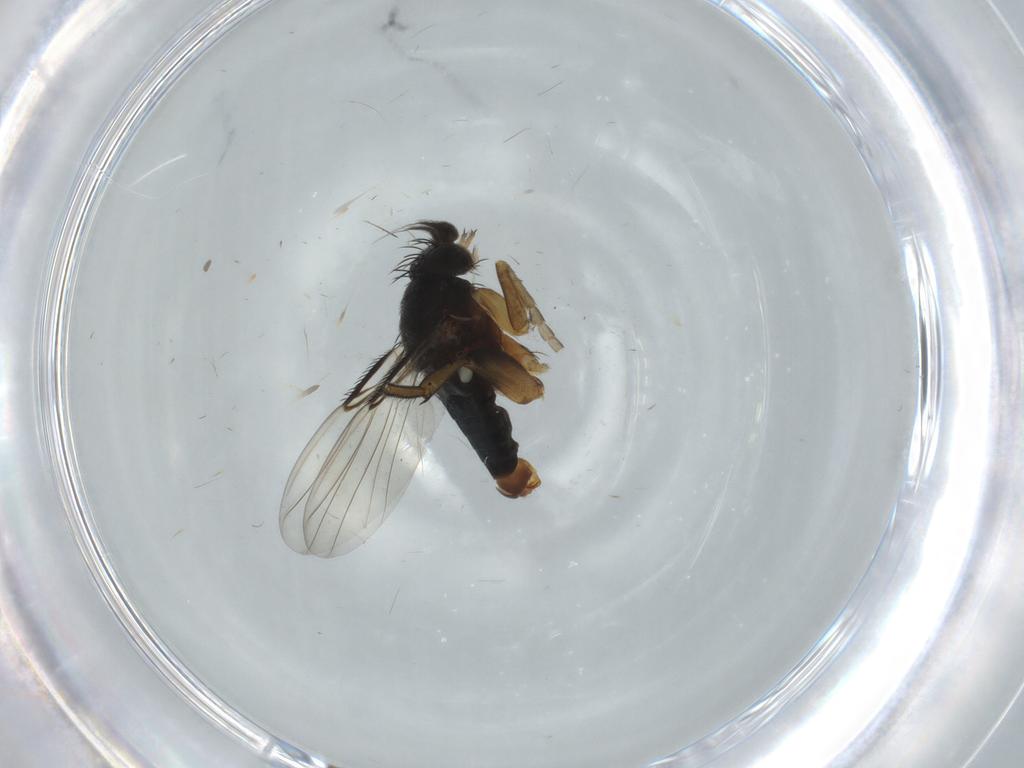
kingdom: Animalia
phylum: Arthropoda
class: Insecta
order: Diptera
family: Phoridae
